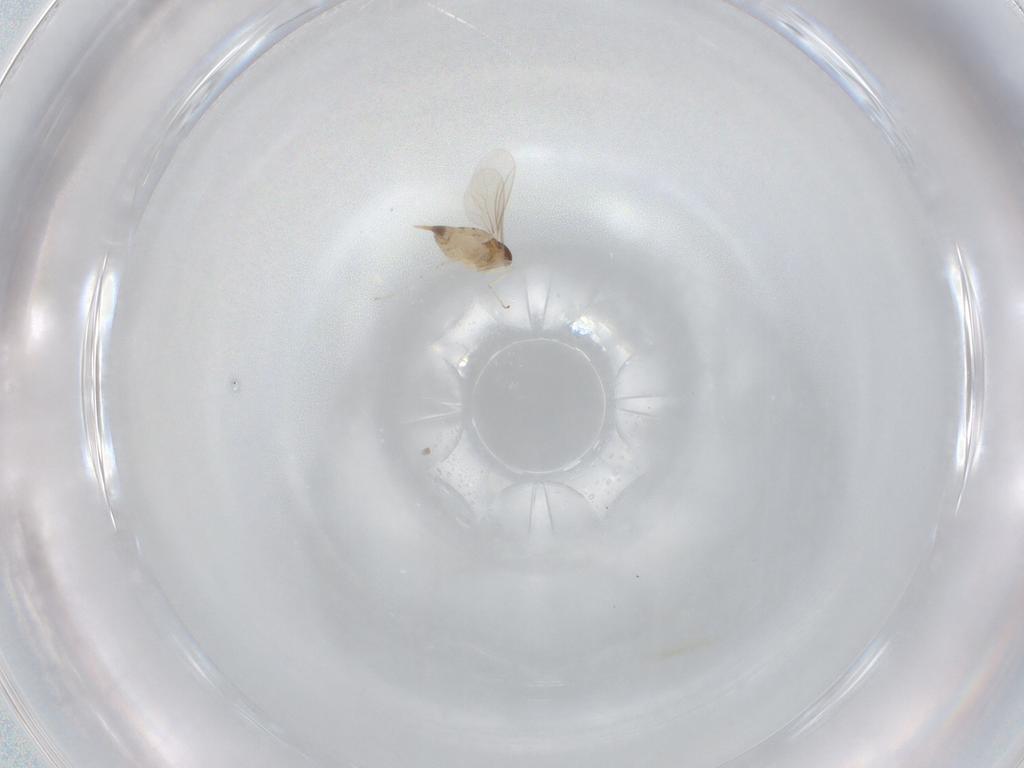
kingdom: Animalia
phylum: Arthropoda
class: Insecta
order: Diptera
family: Cecidomyiidae
